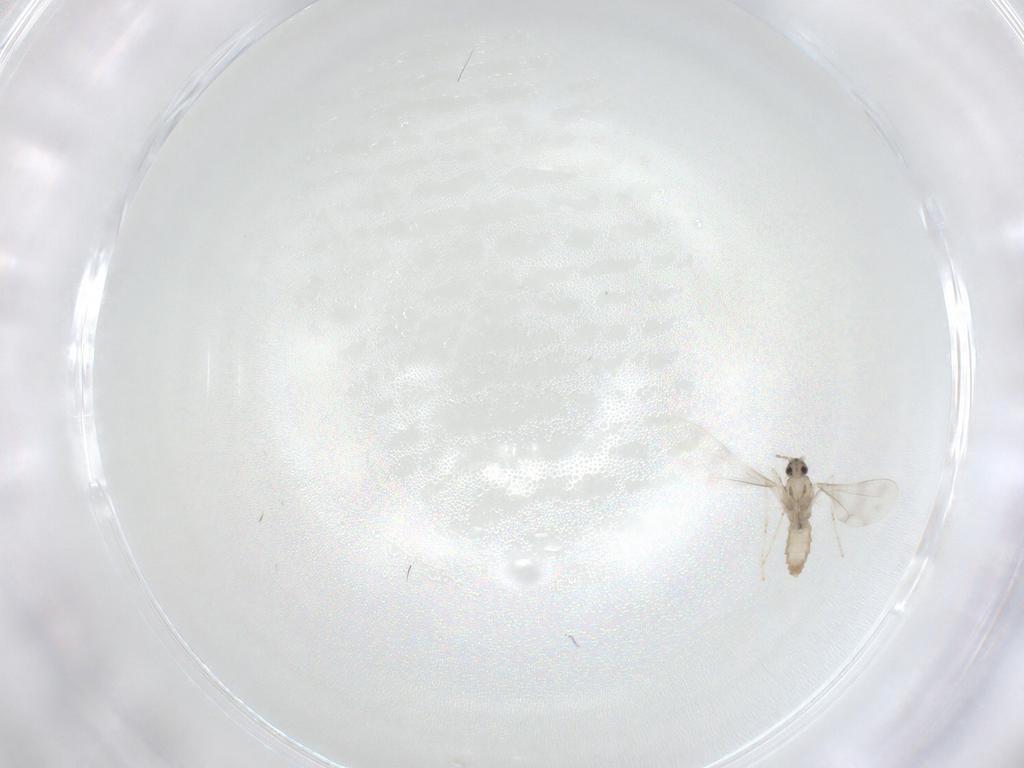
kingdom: Animalia
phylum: Arthropoda
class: Insecta
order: Diptera
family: Cecidomyiidae
